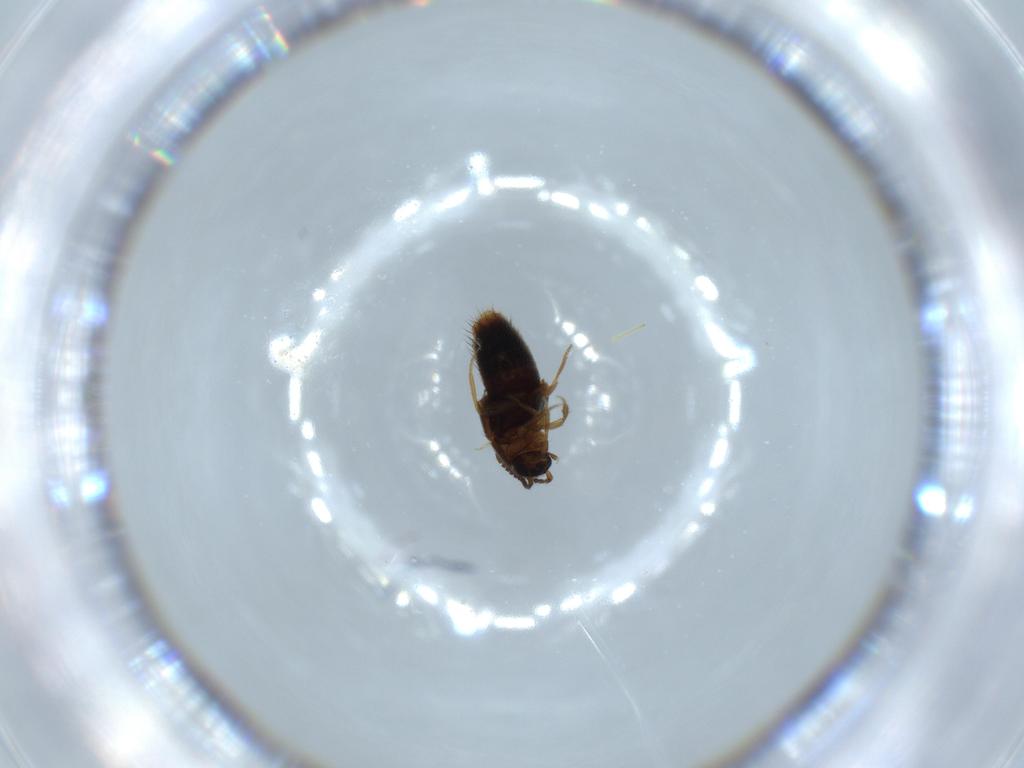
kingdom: Animalia
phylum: Arthropoda
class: Insecta
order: Coleoptera
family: Staphylinidae
